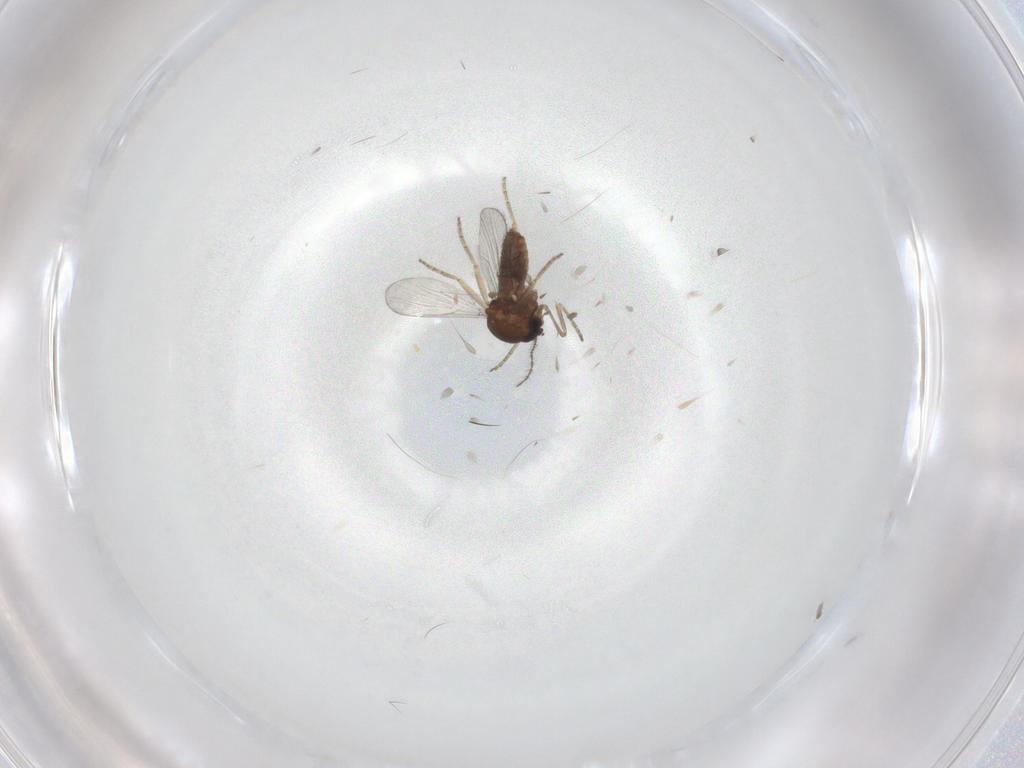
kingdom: Animalia
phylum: Arthropoda
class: Insecta
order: Diptera
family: Ceratopogonidae
